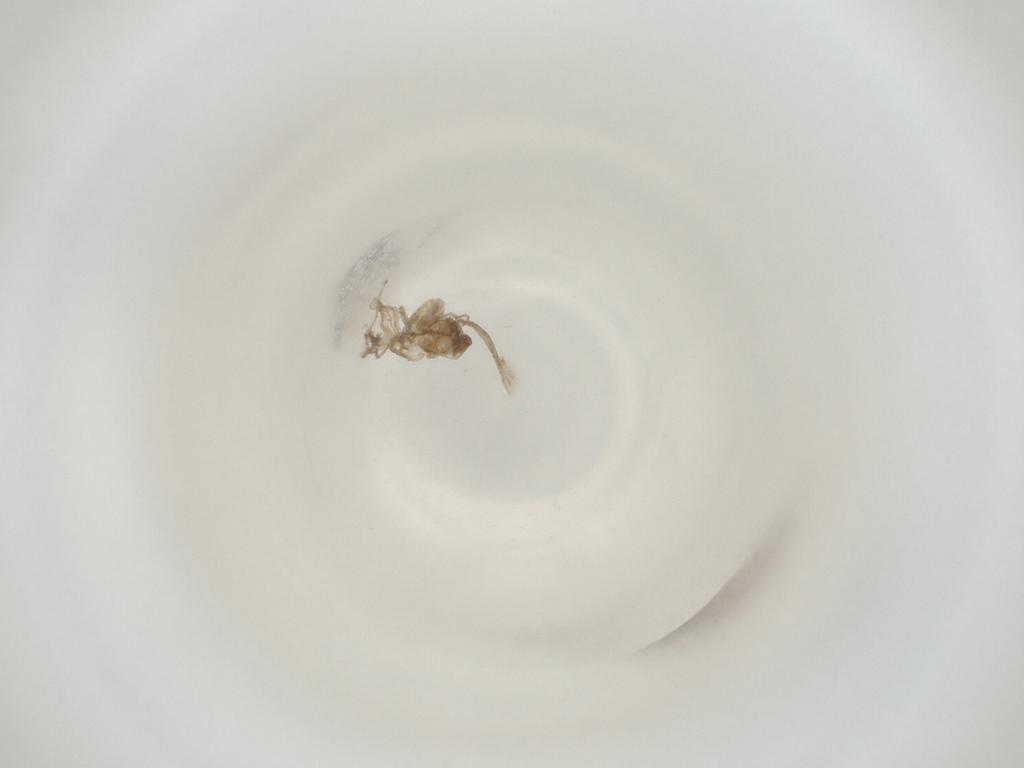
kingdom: Animalia
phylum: Arthropoda
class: Insecta
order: Diptera
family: Cecidomyiidae
